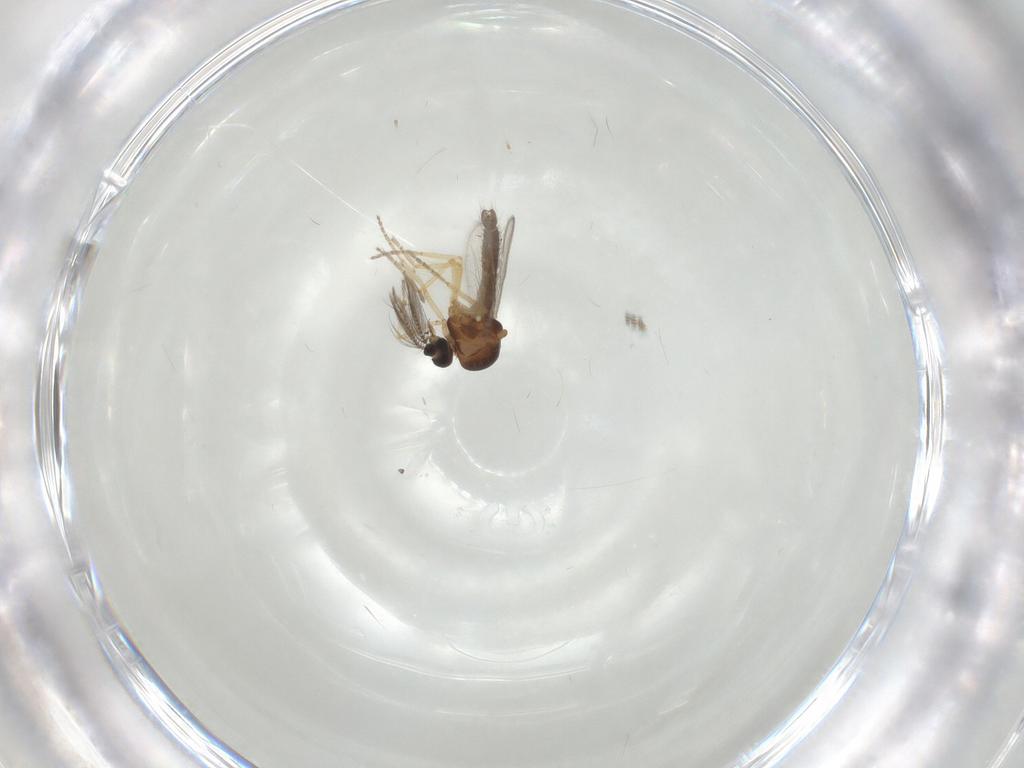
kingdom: Animalia
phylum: Arthropoda
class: Insecta
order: Diptera
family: Ceratopogonidae
